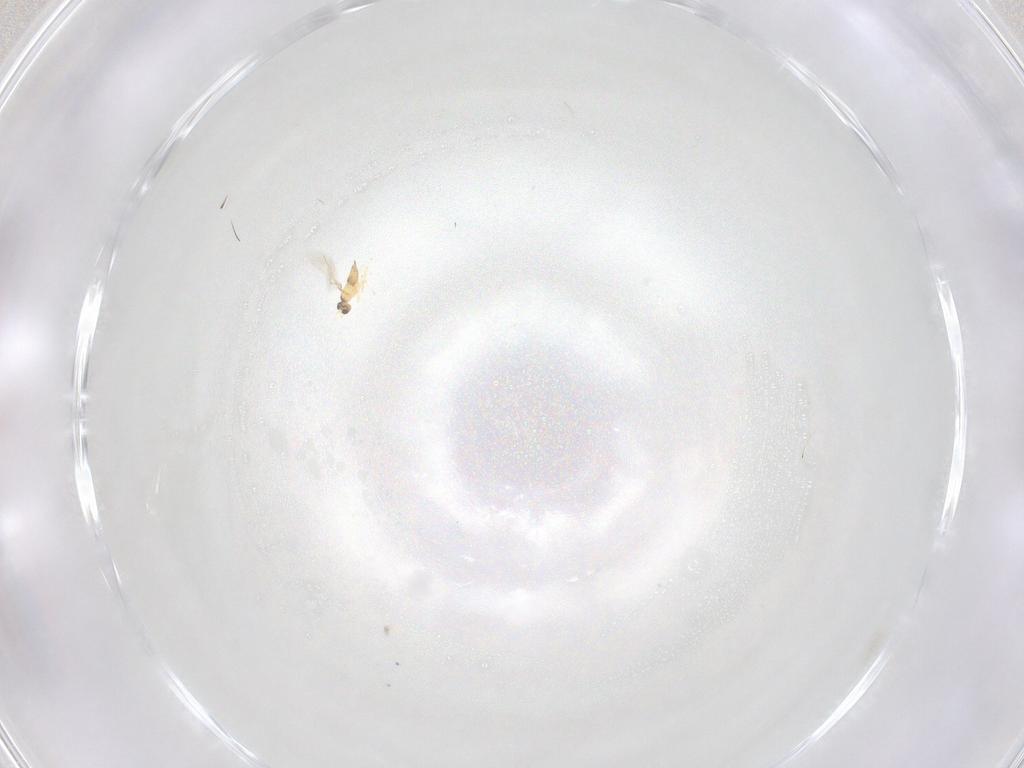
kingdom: Animalia
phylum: Arthropoda
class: Insecta
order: Hymenoptera
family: Mymaridae
